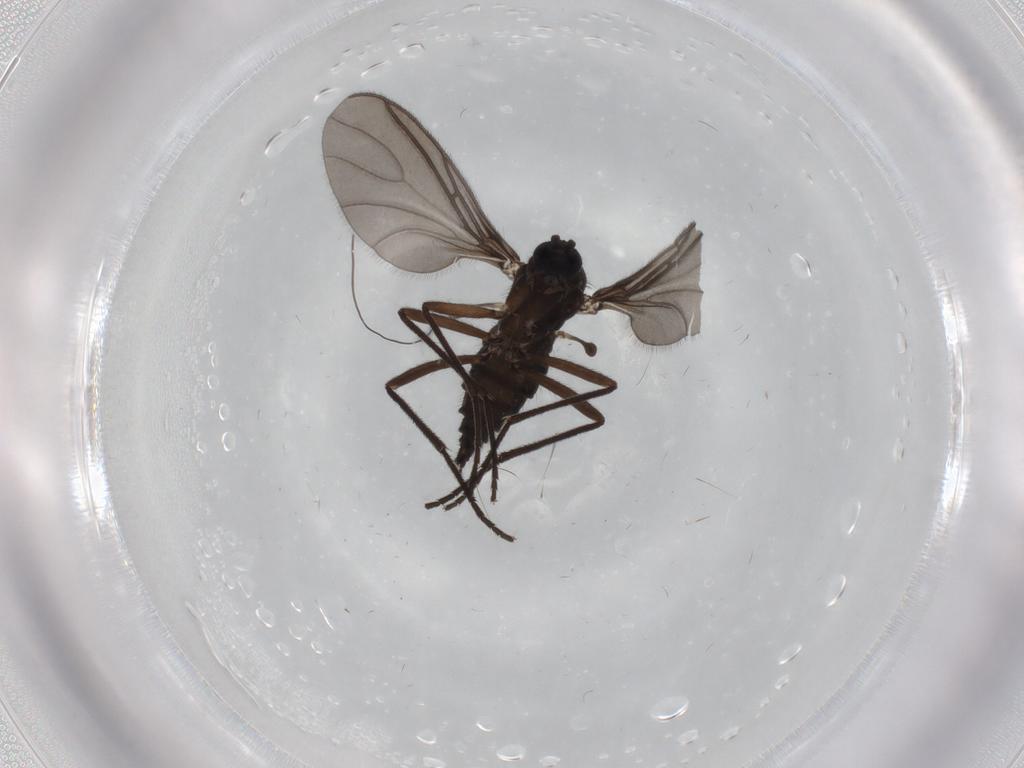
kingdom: Animalia
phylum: Arthropoda
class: Insecta
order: Diptera
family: Sciaridae
